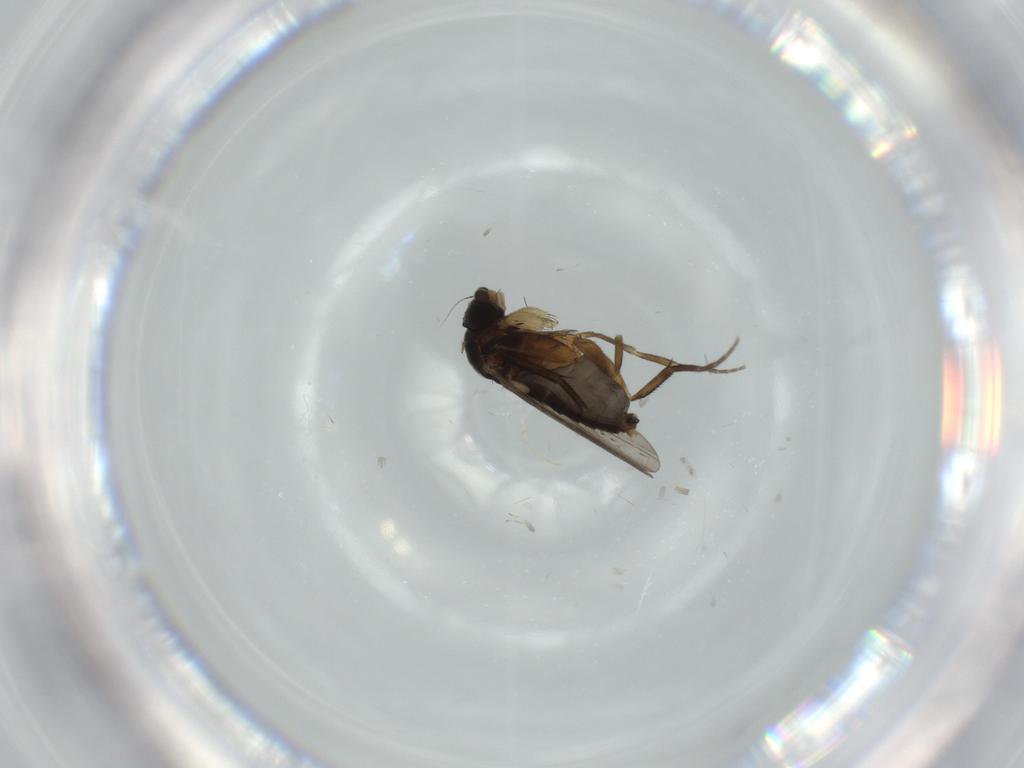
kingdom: Animalia
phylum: Arthropoda
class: Insecta
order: Diptera
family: Phoridae
